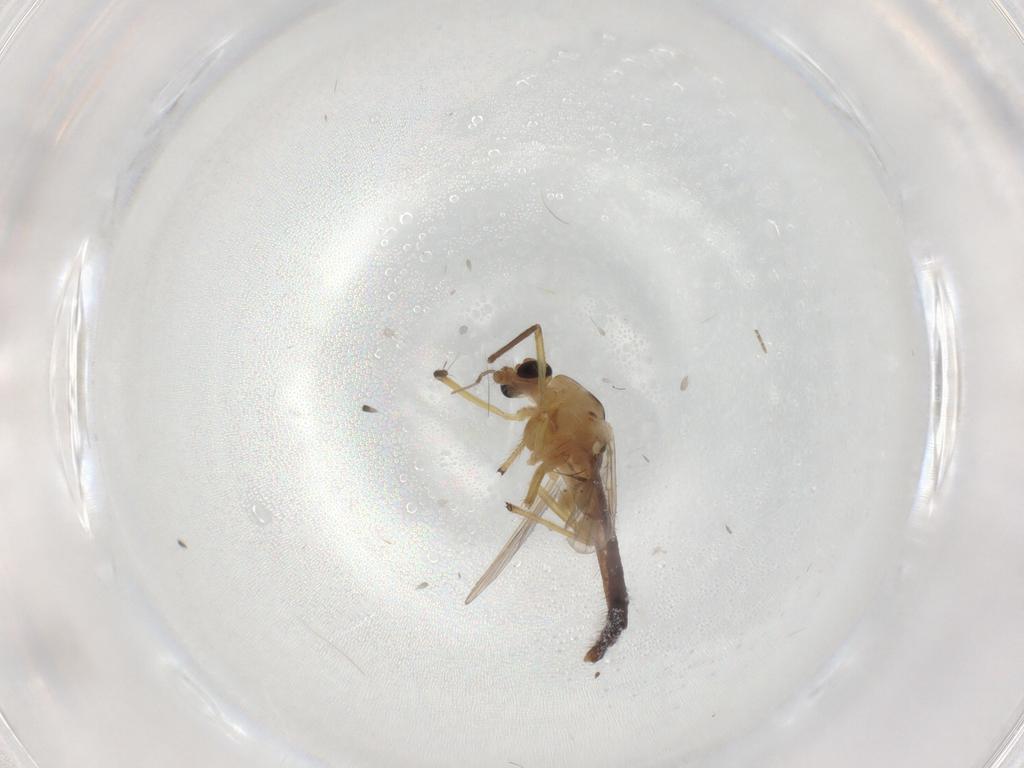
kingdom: Animalia
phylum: Arthropoda
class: Insecta
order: Diptera
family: Chironomidae
